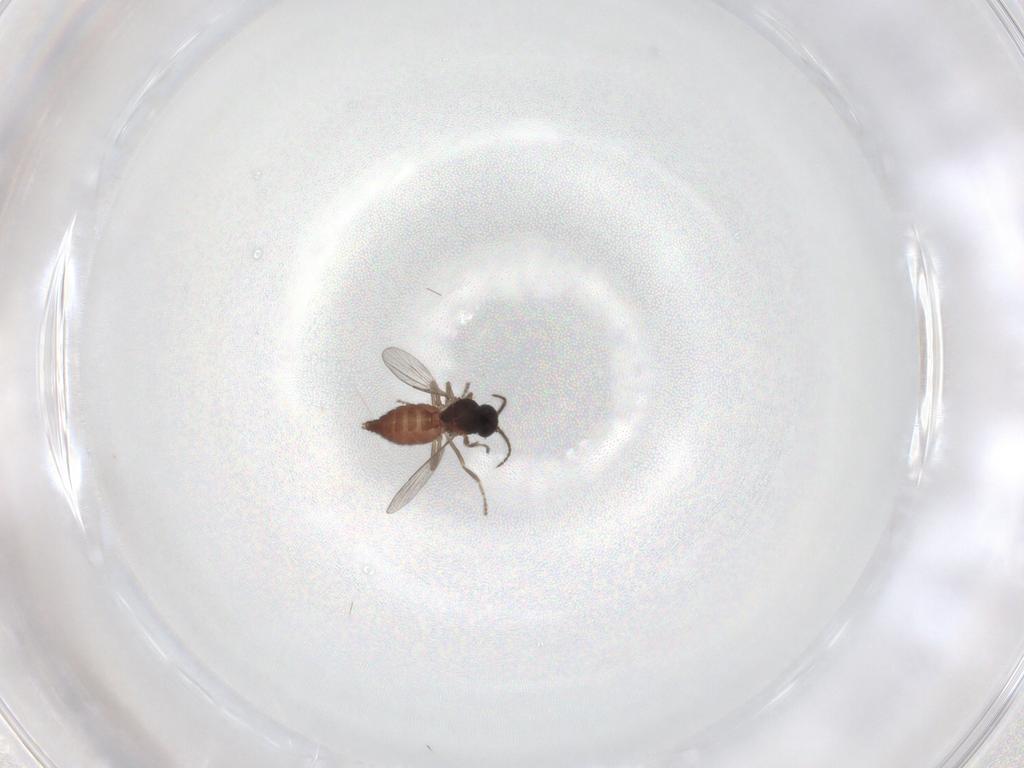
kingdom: Animalia
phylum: Arthropoda
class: Insecta
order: Diptera
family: Ceratopogonidae
